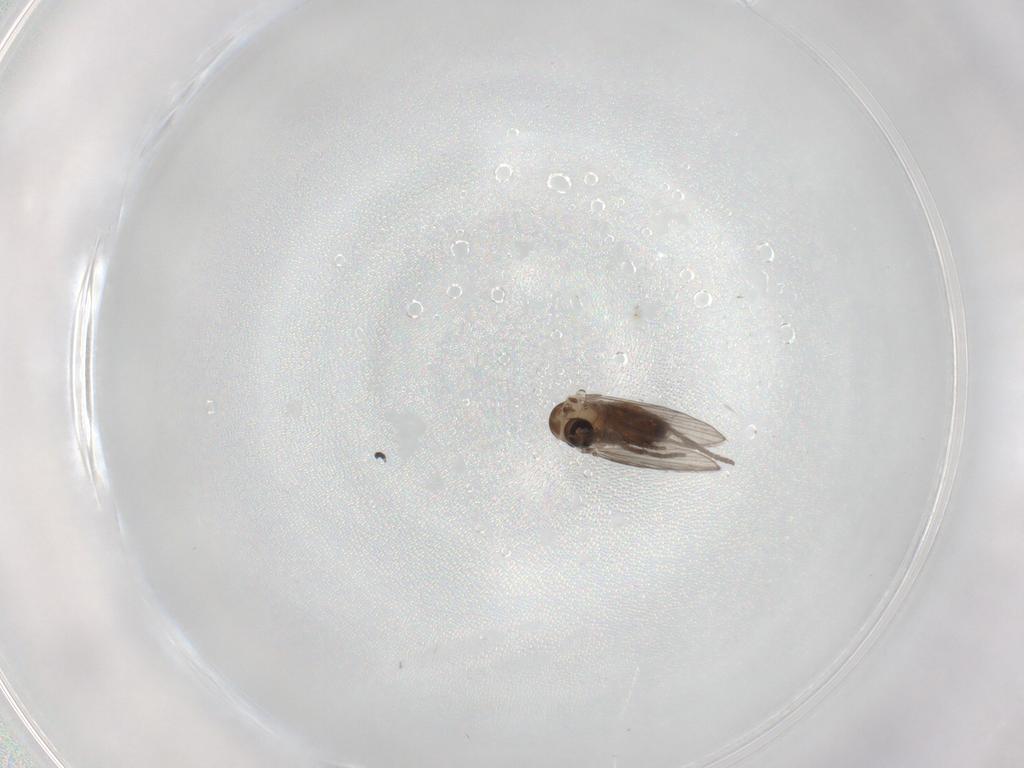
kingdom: Animalia
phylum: Arthropoda
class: Insecta
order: Diptera
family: Psychodidae
